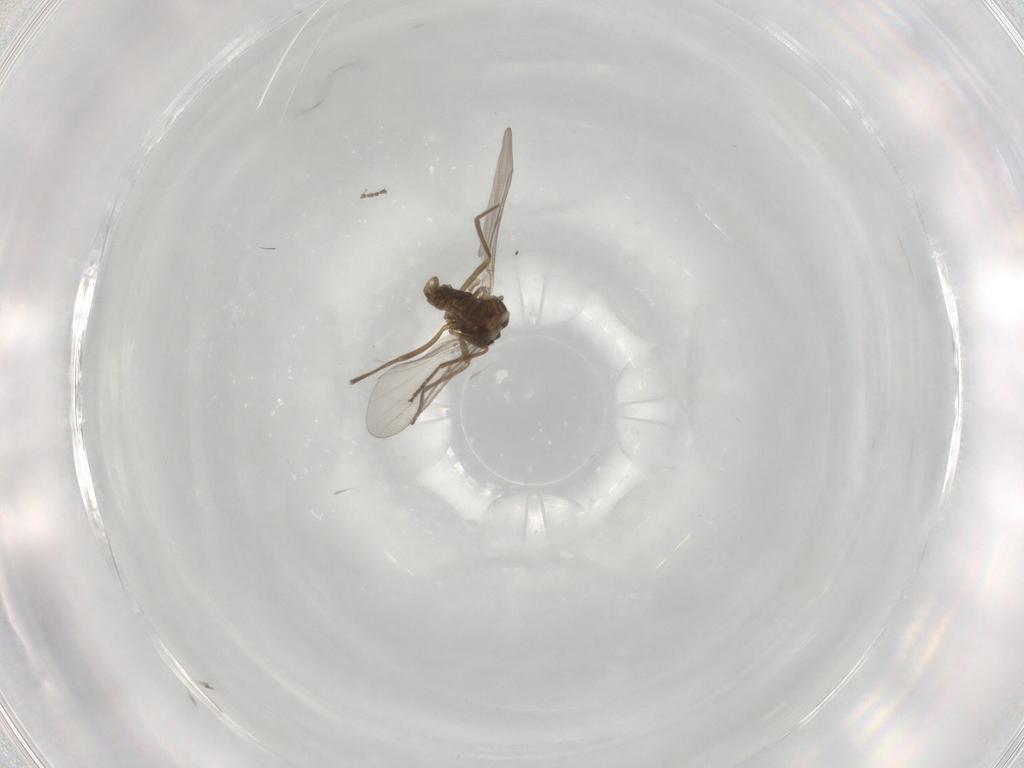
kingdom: Animalia
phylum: Arthropoda
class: Insecta
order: Diptera
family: Cecidomyiidae
